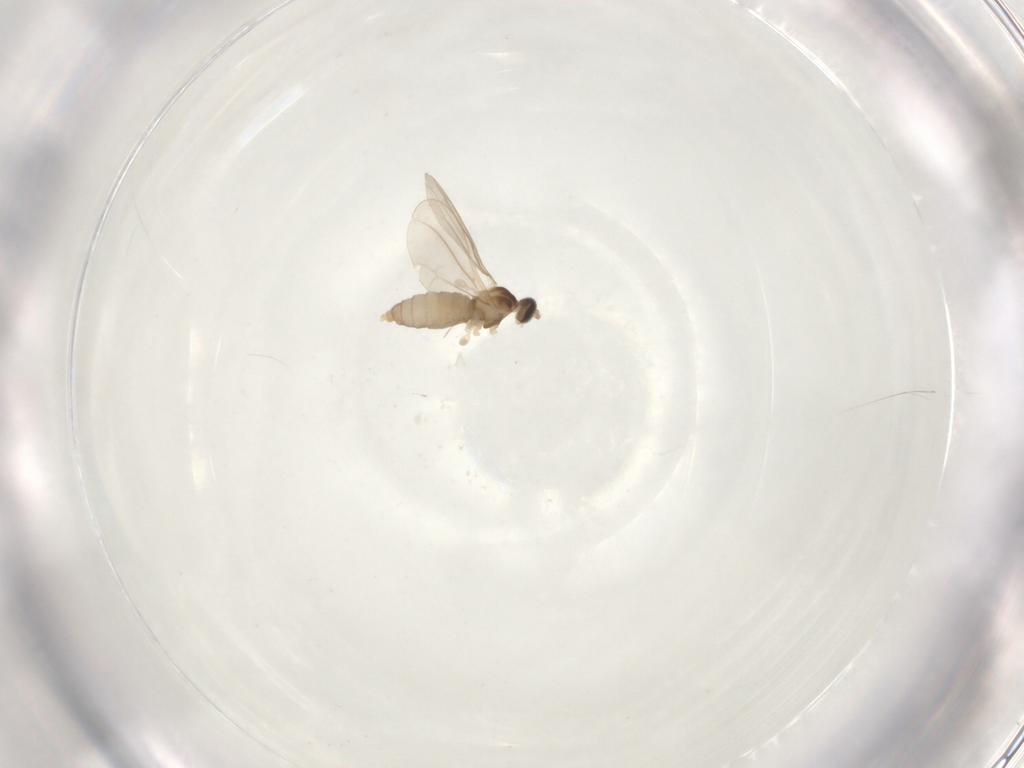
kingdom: Animalia
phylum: Arthropoda
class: Insecta
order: Diptera
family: Cecidomyiidae
